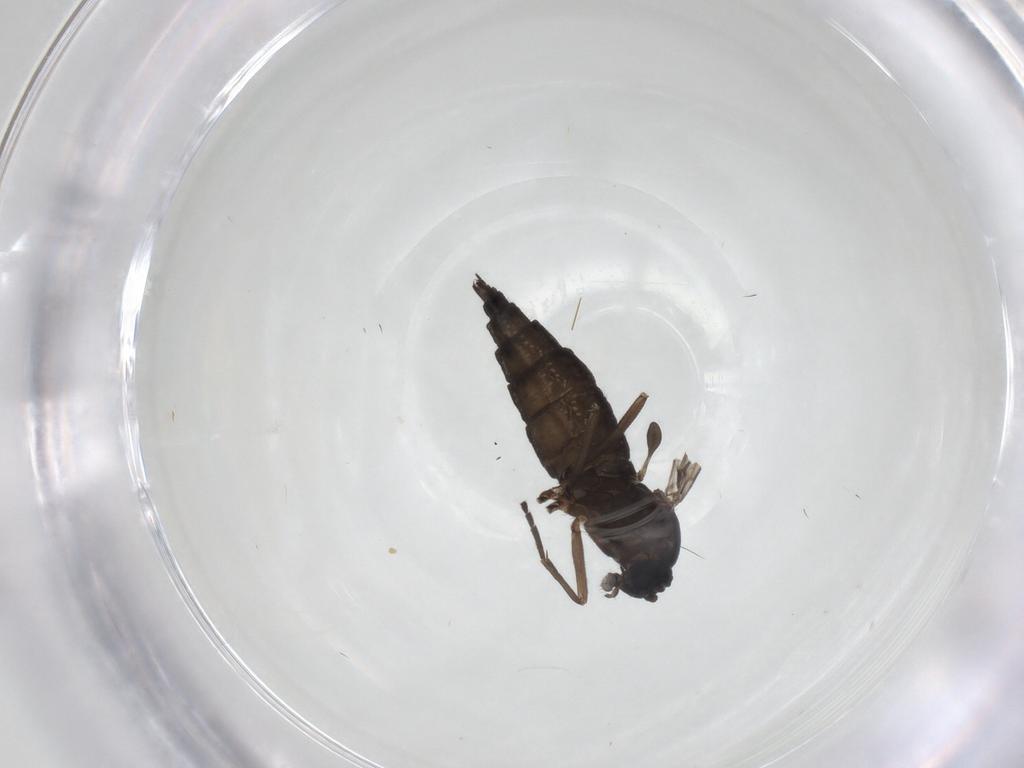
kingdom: Animalia
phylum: Arthropoda
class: Insecta
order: Diptera
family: Sciaridae
